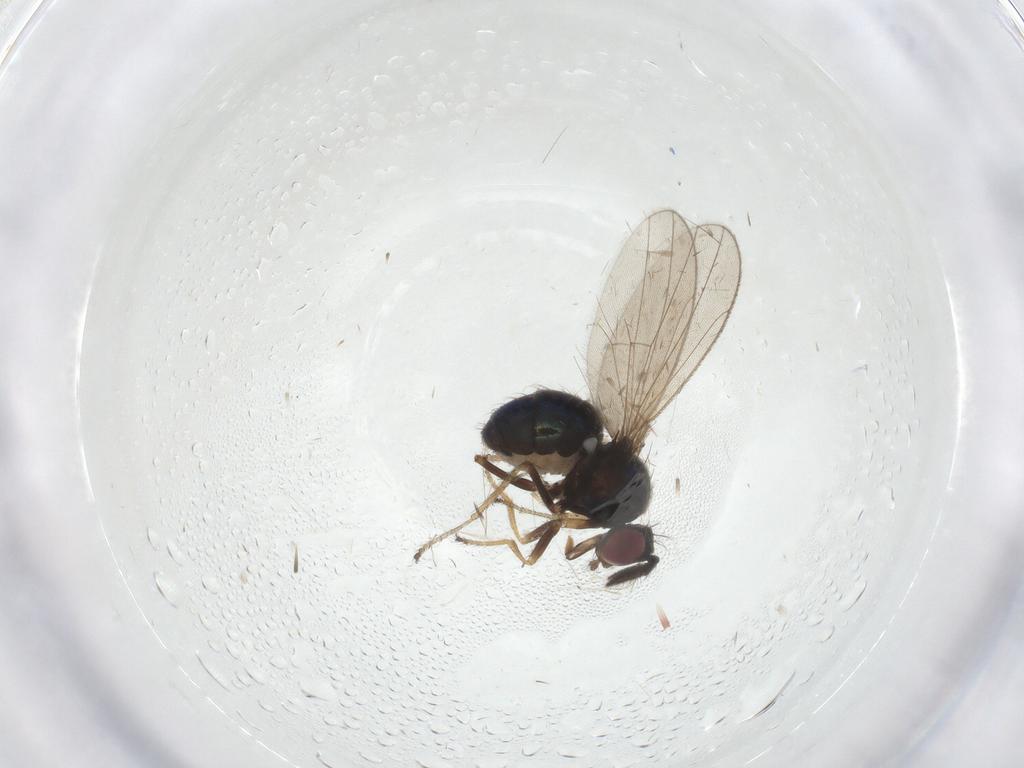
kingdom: Animalia
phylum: Arthropoda
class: Insecta
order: Diptera
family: Ephydridae
